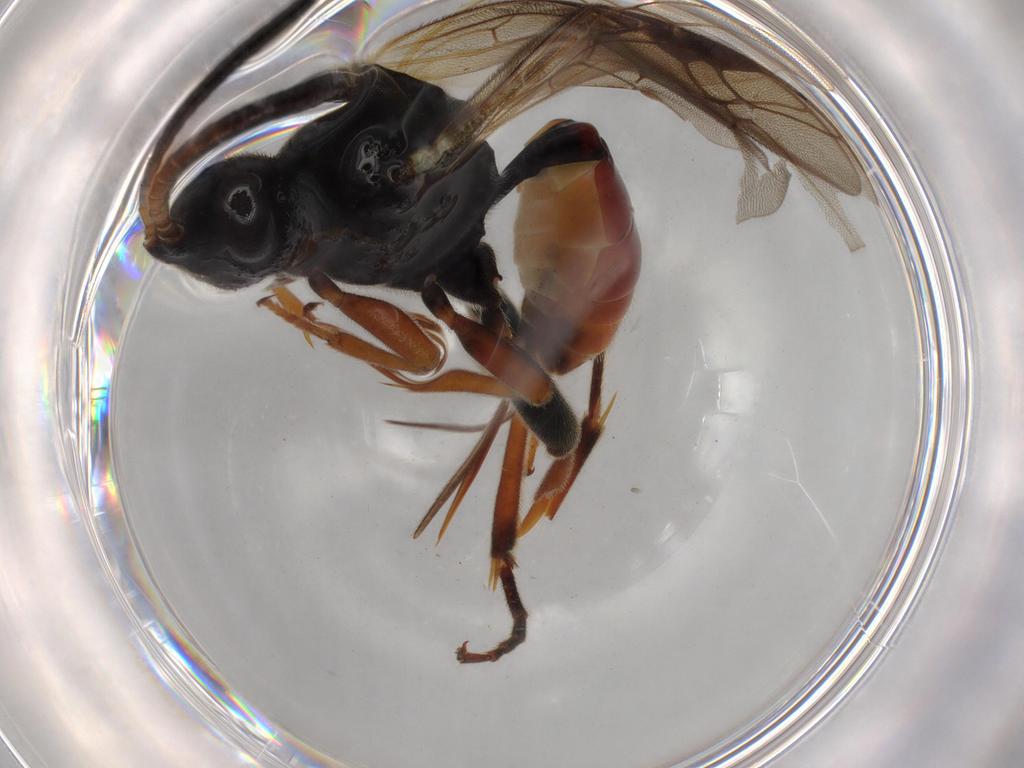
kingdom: Animalia
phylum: Arthropoda
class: Insecta
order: Hymenoptera
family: Ichneumonidae
